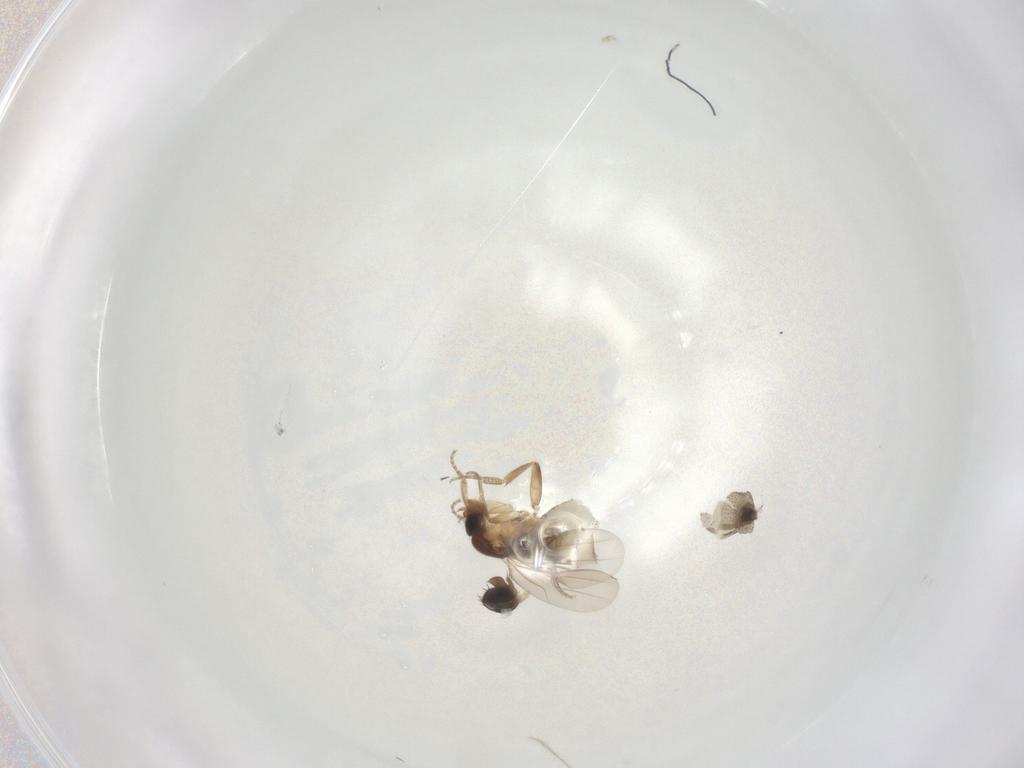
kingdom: Animalia
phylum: Arthropoda
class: Insecta
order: Diptera
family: Phoridae
